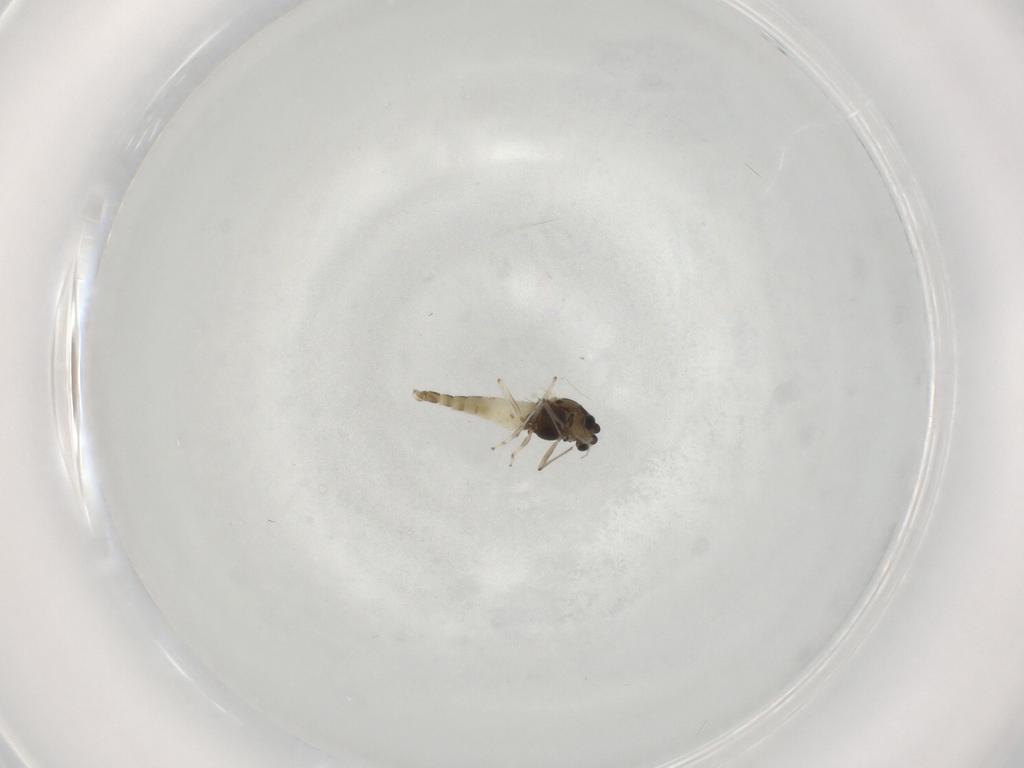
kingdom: Animalia
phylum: Arthropoda
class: Insecta
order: Diptera
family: Chironomidae
